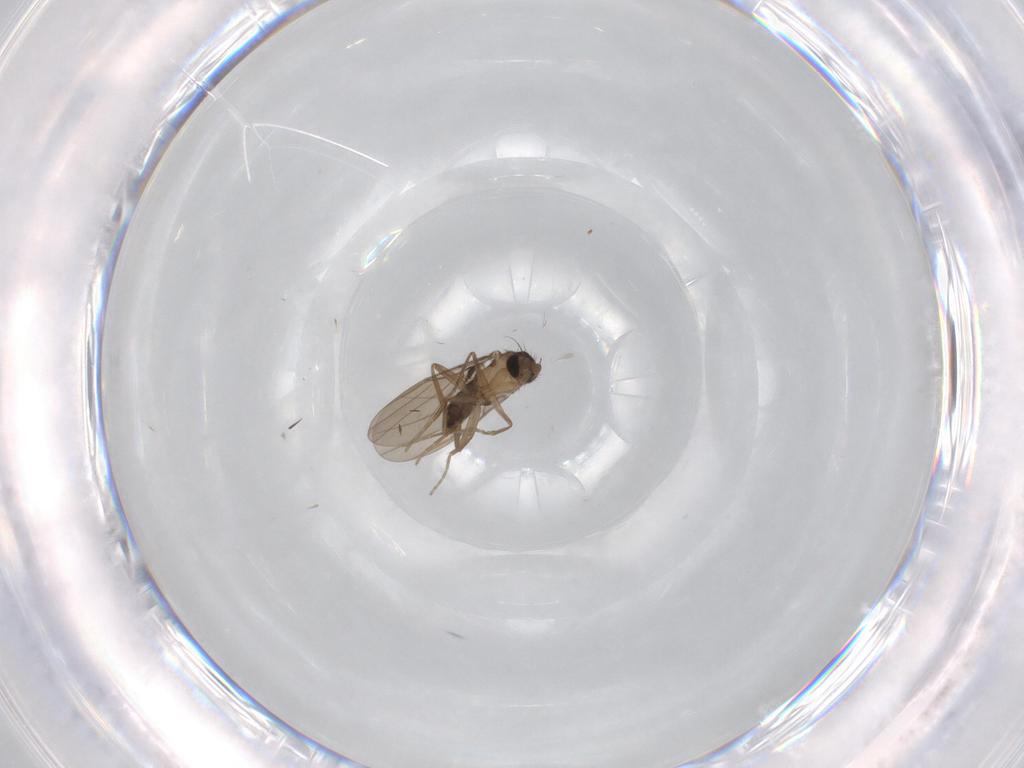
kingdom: Animalia
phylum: Arthropoda
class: Insecta
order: Diptera
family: Sciaridae
